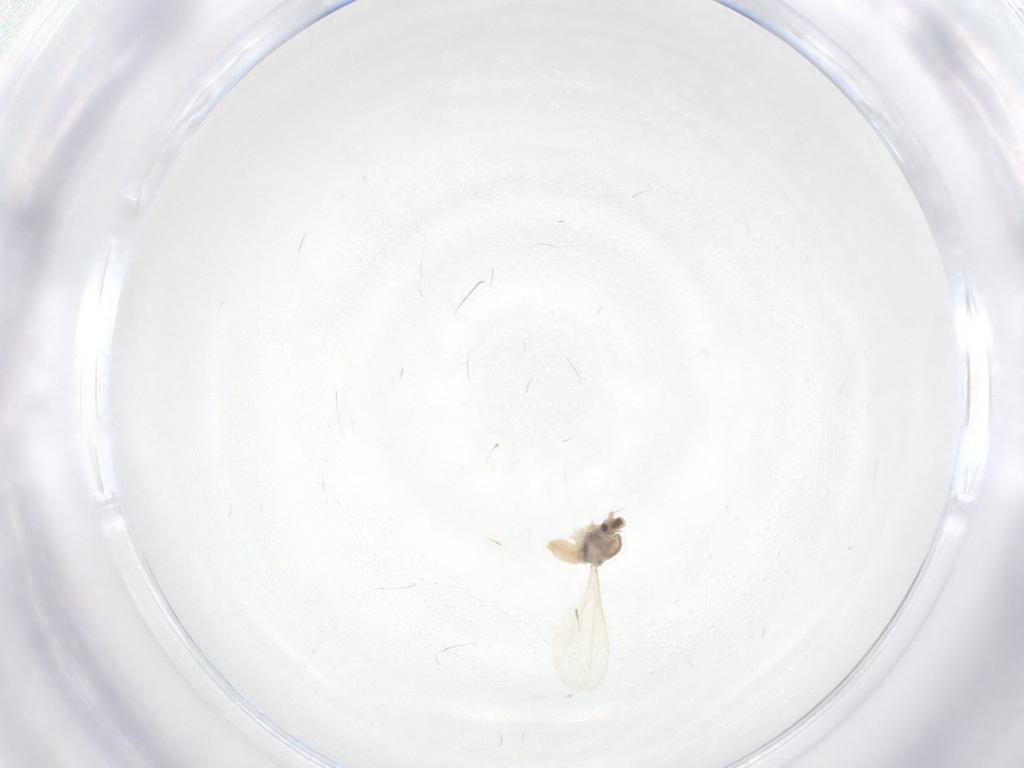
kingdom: Animalia
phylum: Arthropoda
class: Insecta
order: Diptera
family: Cecidomyiidae
